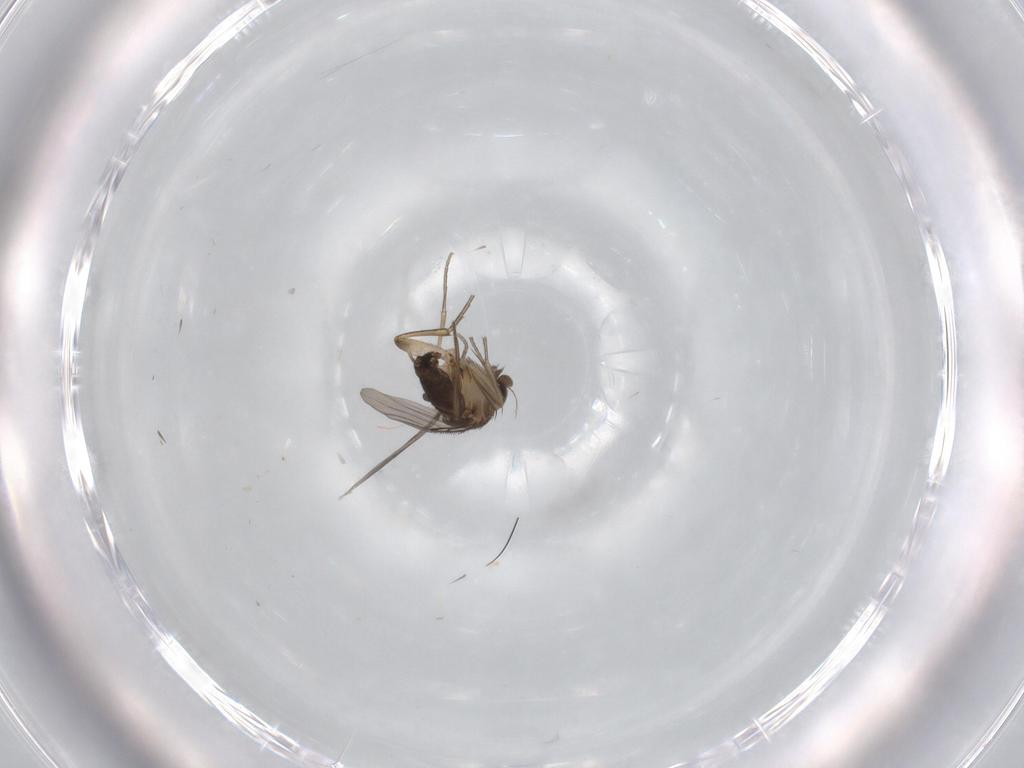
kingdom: Animalia
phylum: Arthropoda
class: Insecta
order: Diptera
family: Phoridae
